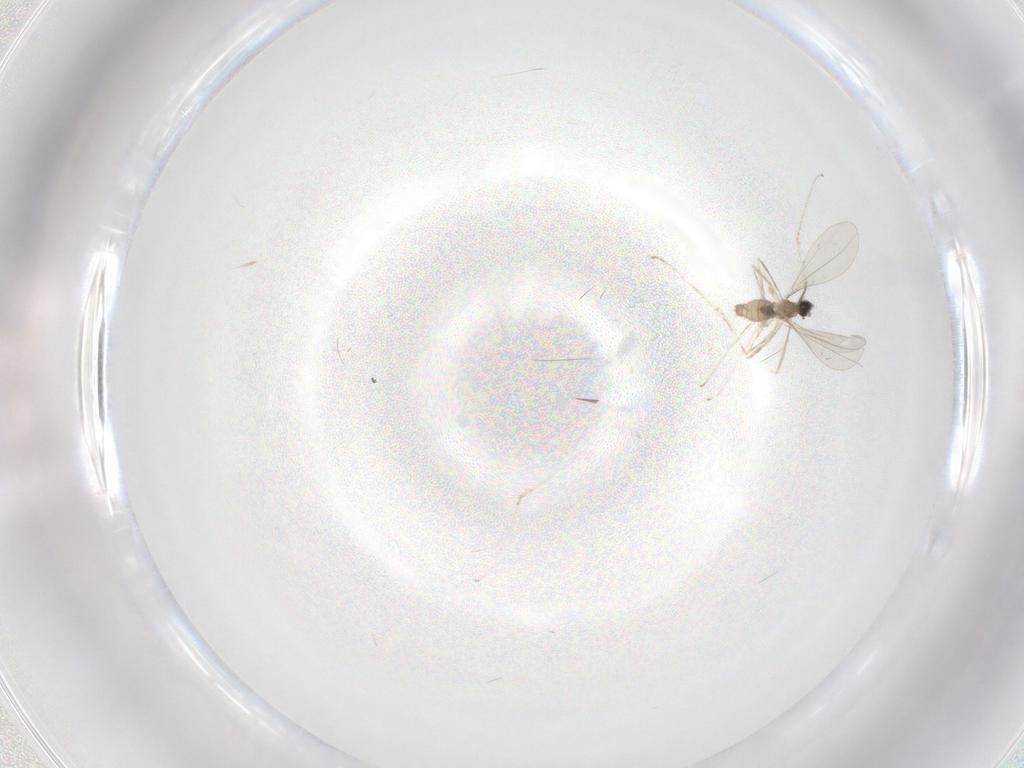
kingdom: Animalia
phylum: Arthropoda
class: Insecta
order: Diptera
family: Cecidomyiidae
